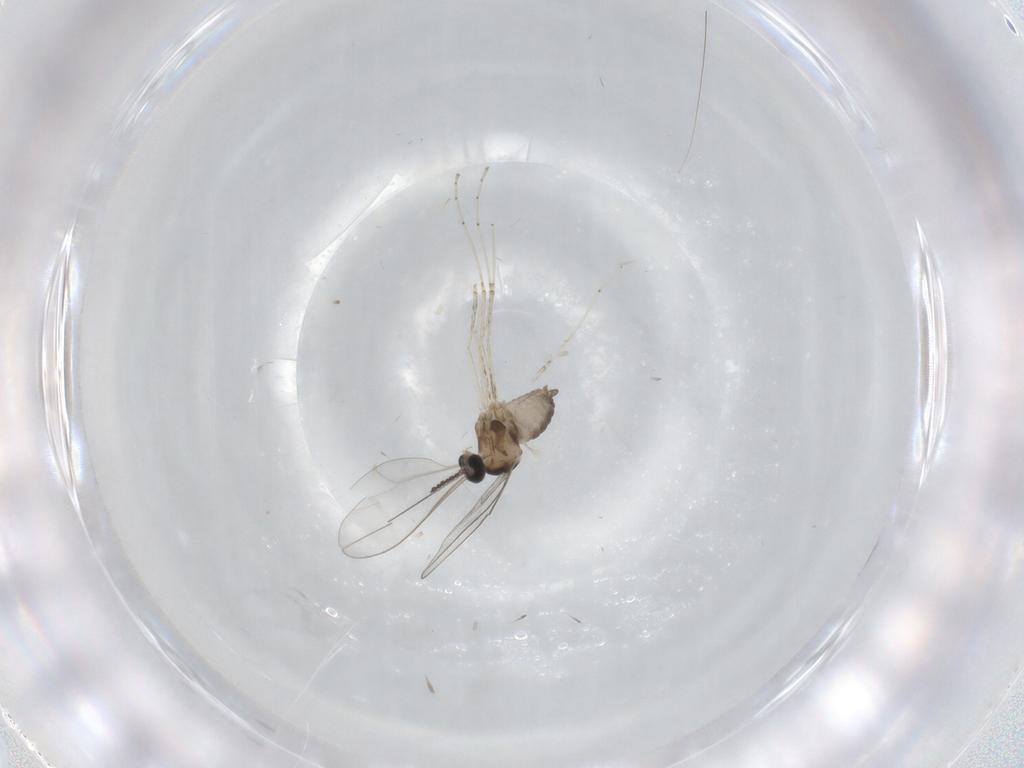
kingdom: Animalia
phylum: Arthropoda
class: Insecta
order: Diptera
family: Cecidomyiidae
